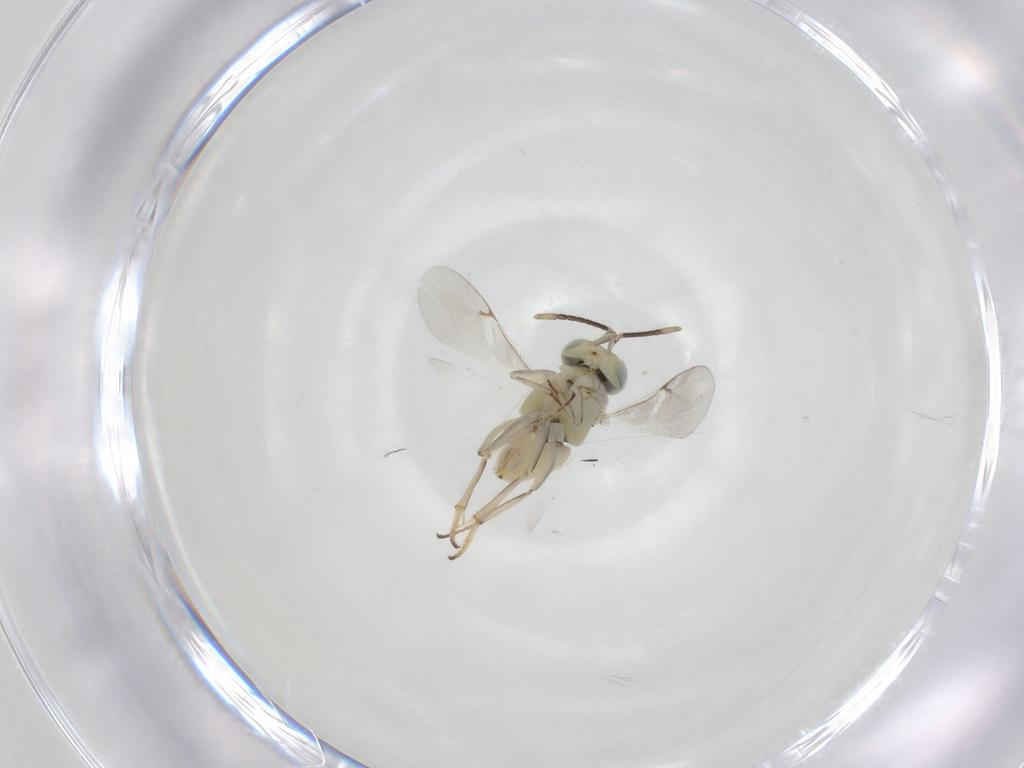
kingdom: Animalia
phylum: Arthropoda
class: Insecta
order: Hymenoptera
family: Encyrtidae
